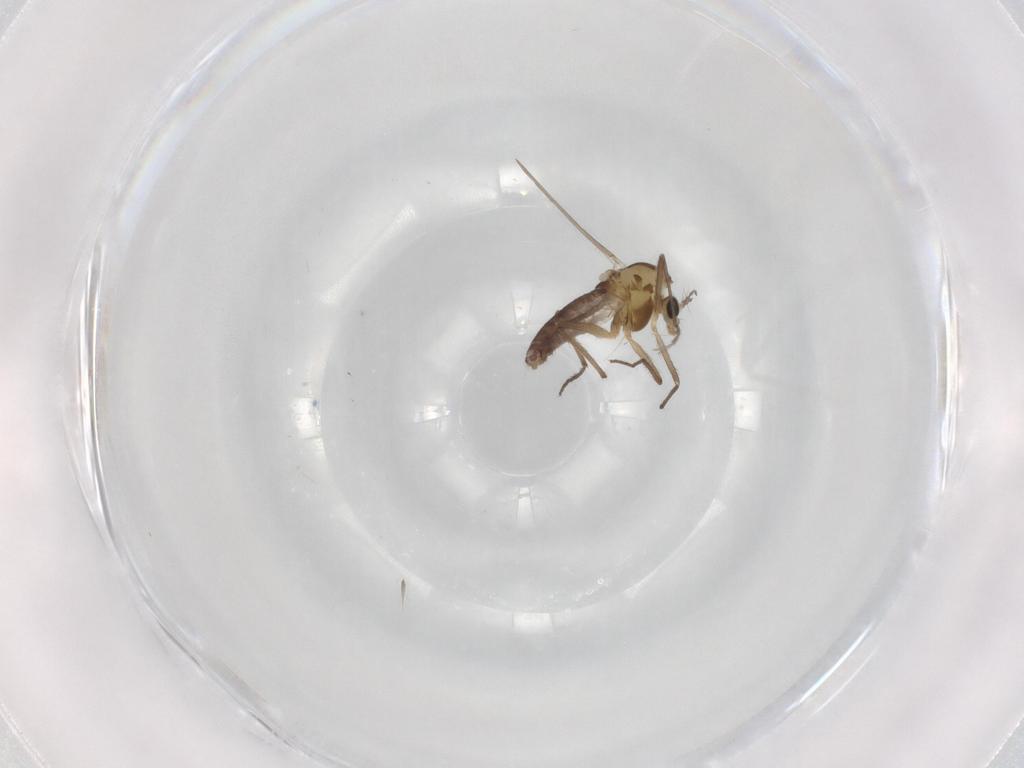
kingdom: Animalia
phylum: Arthropoda
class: Insecta
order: Diptera
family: Chironomidae
